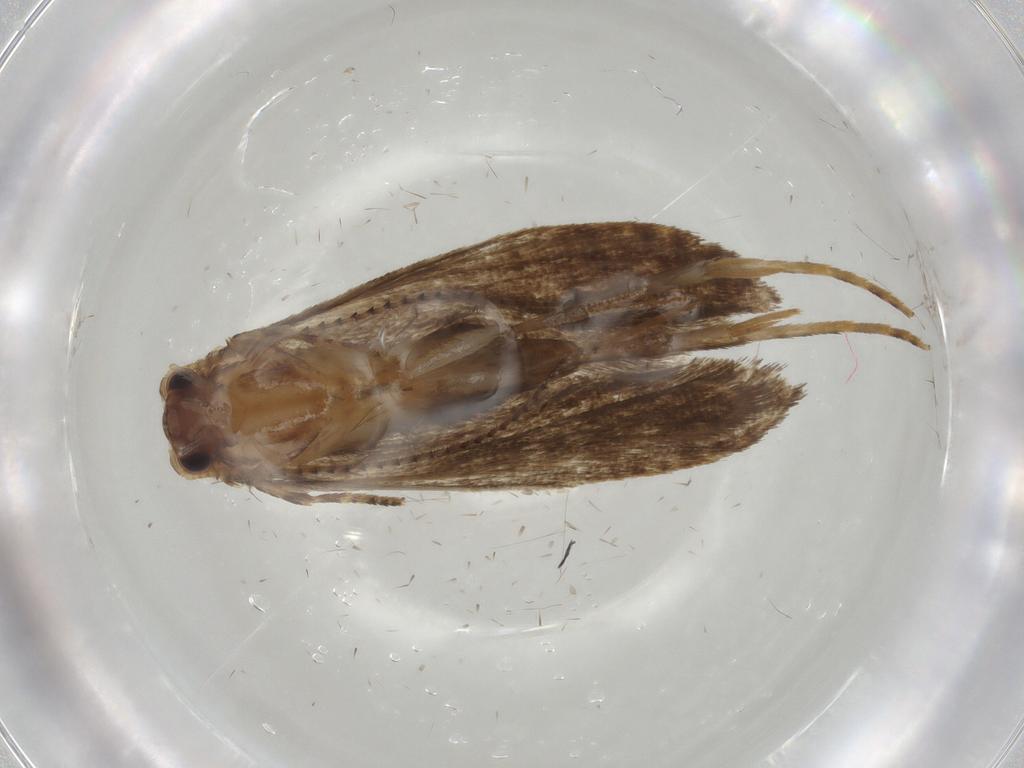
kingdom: Animalia
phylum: Arthropoda
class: Insecta
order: Lepidoptera
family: Tineidae
